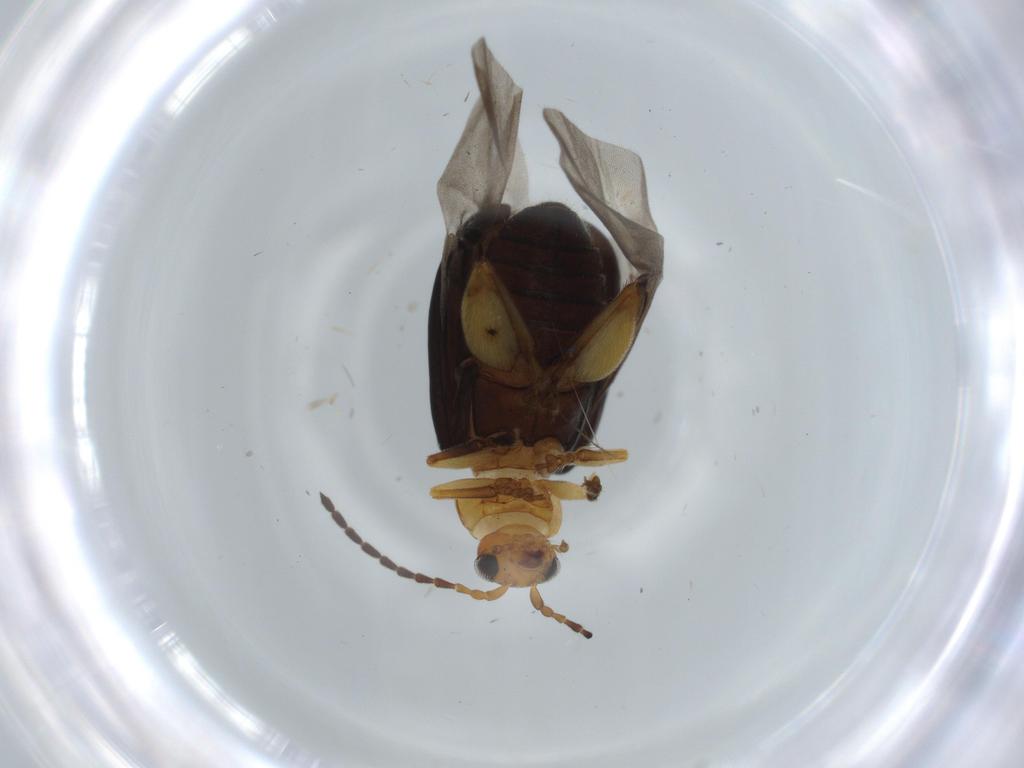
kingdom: Animalia
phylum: Arthropoda
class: Insecta
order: Coleoptera
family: Chrysomelidae
